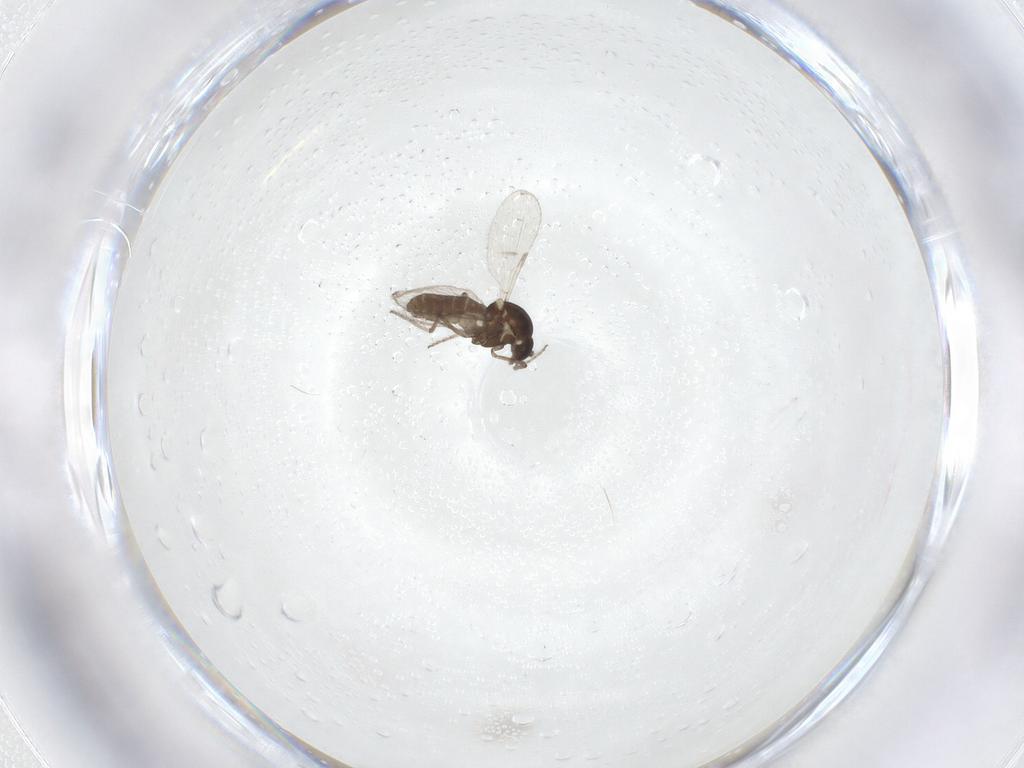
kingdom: Animalia
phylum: Arthropoda
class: Insecta
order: Diptera
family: Ceratopogonidae
